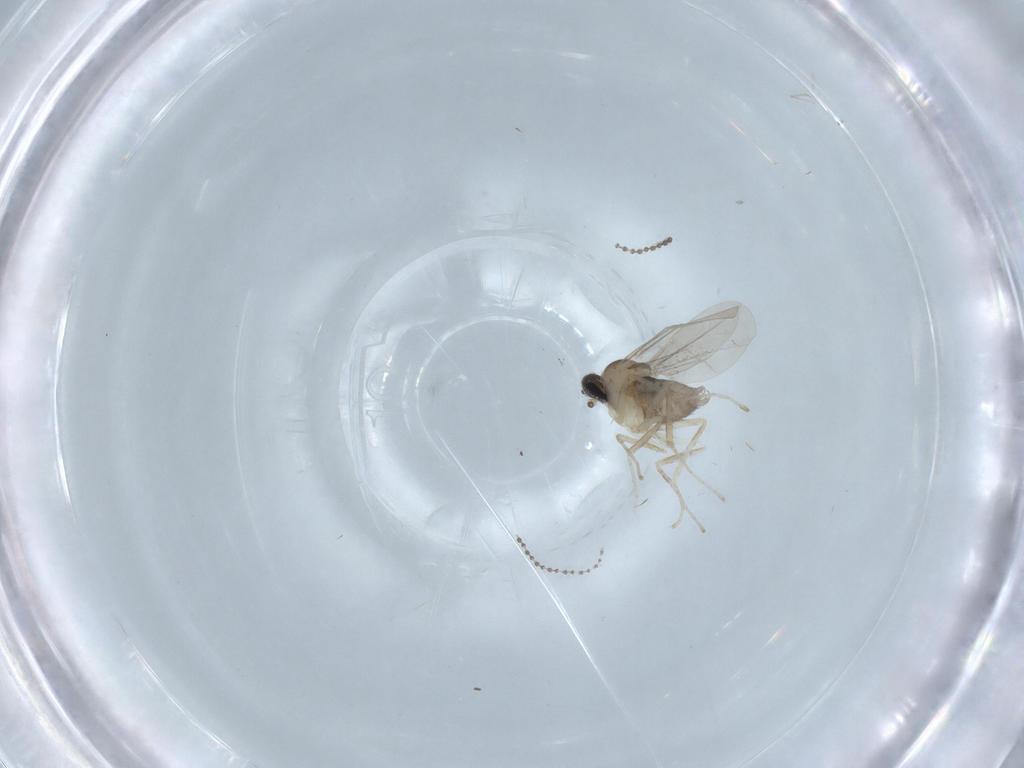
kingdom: Animalia
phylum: Arthropoda
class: Insecta
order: Diptera
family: Cecidomyiidae
